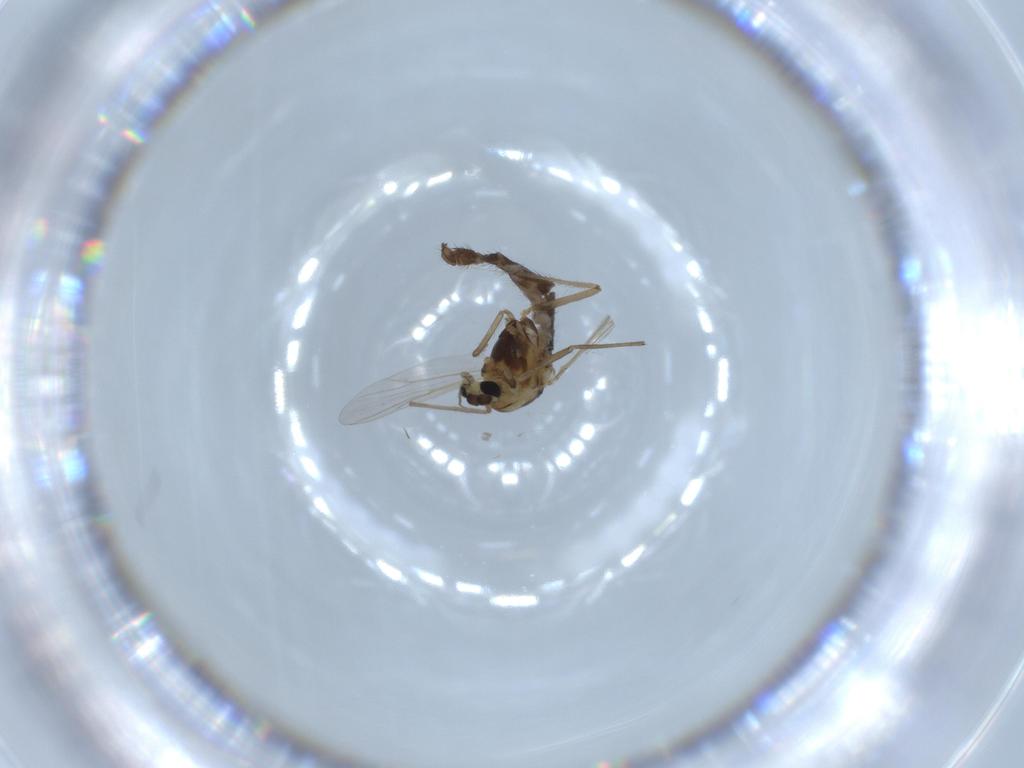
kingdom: Animalia
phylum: Arthropoda
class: Insecta
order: Diptera
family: Chironomidae
